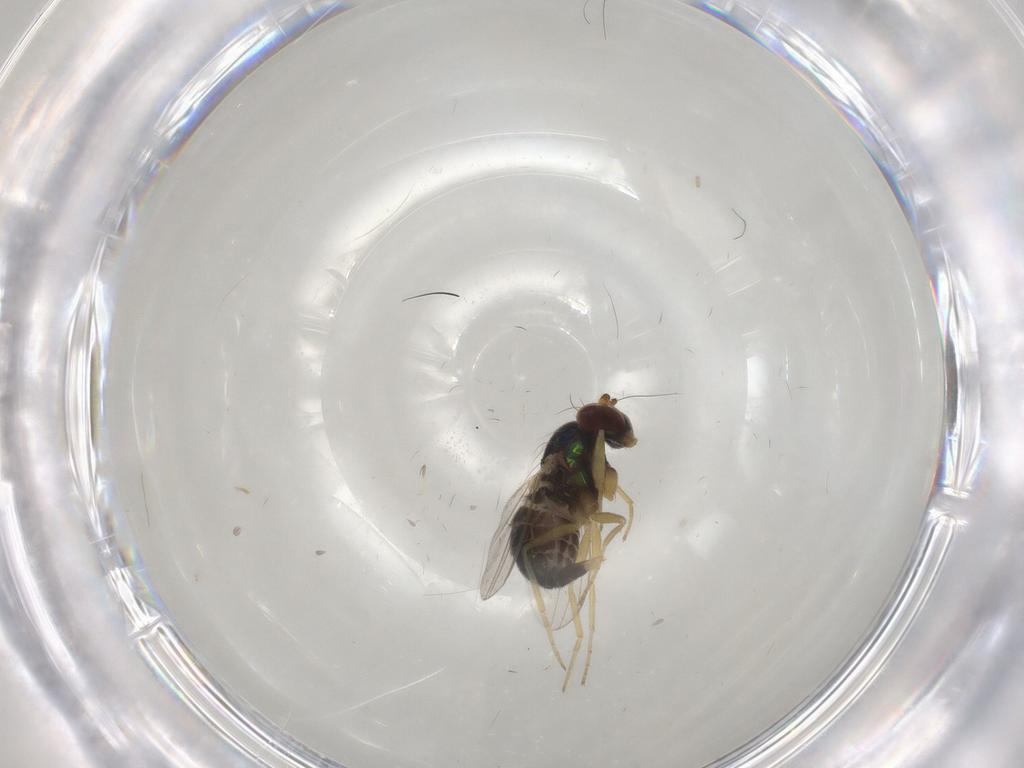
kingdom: Animalia
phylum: Arthropoda
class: Insecta
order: Diptera
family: Dolichopodidae
